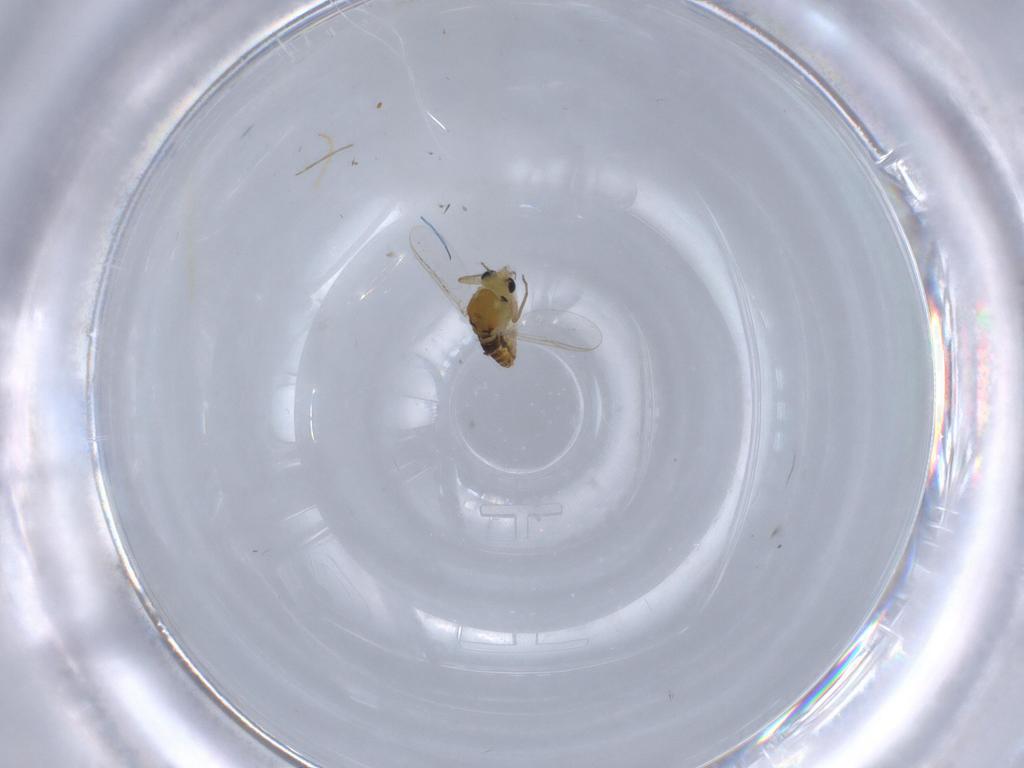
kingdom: Animalia
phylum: Arthropoda
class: Insecta
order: Diptera
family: Chironomidae
